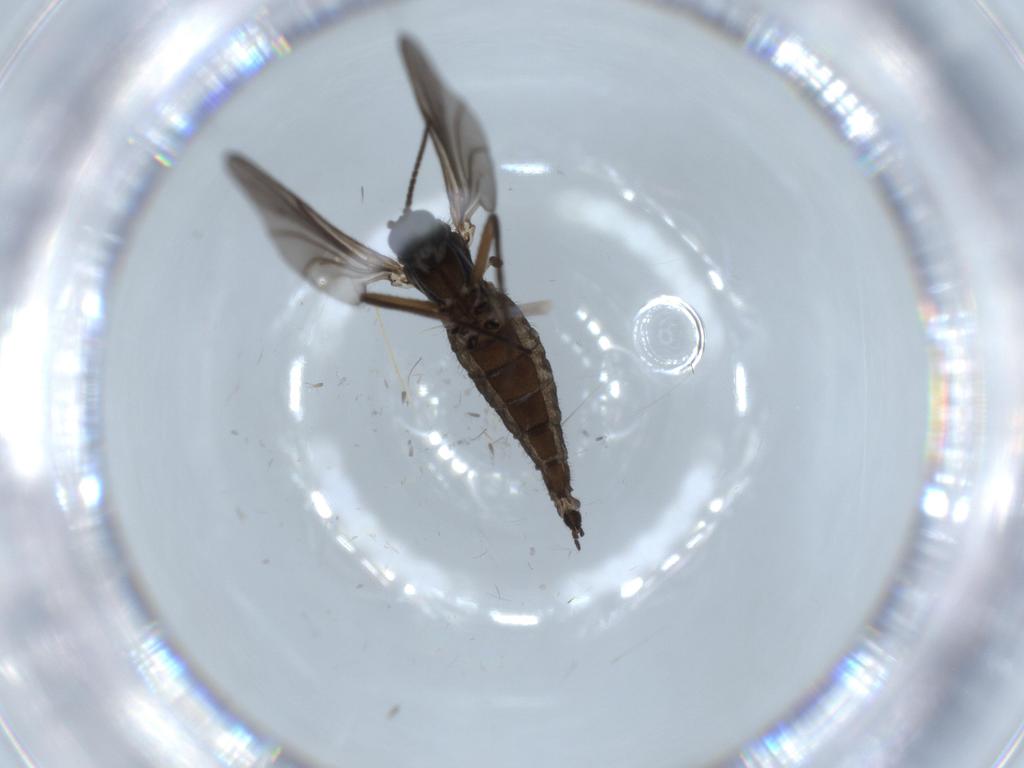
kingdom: Animalia
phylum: Arthropoda
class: Insecta
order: Diptera
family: Sciaridae
